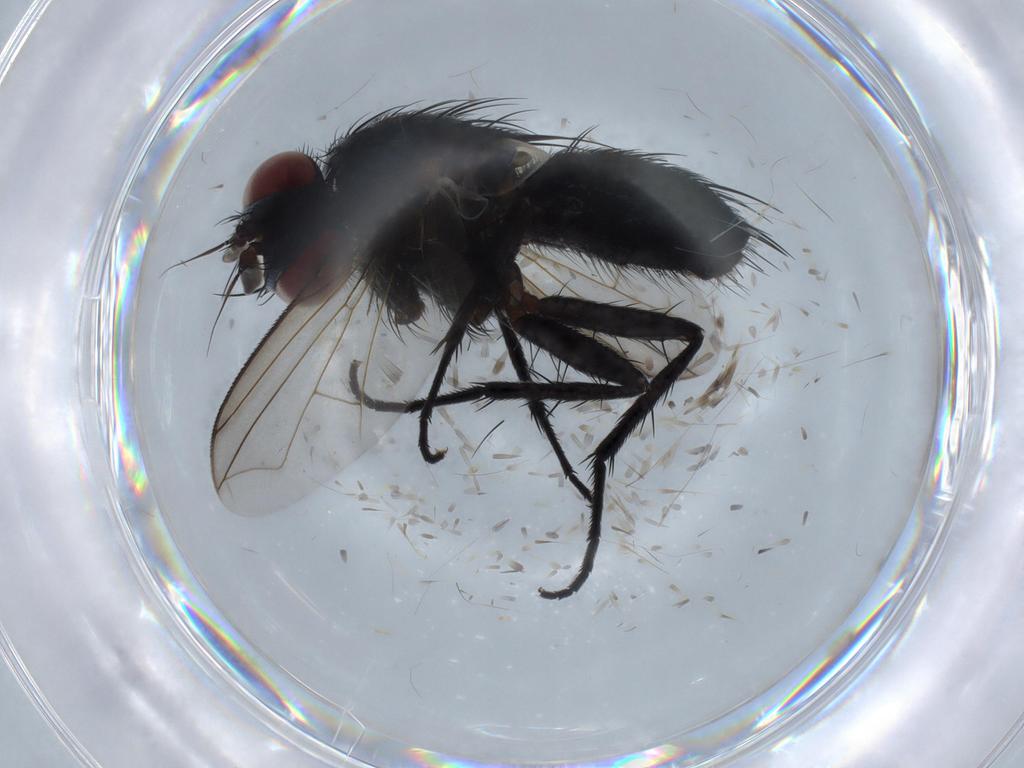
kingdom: Animalia
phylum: Arthropoda
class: Insecta
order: Diptera
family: Tachinidae
